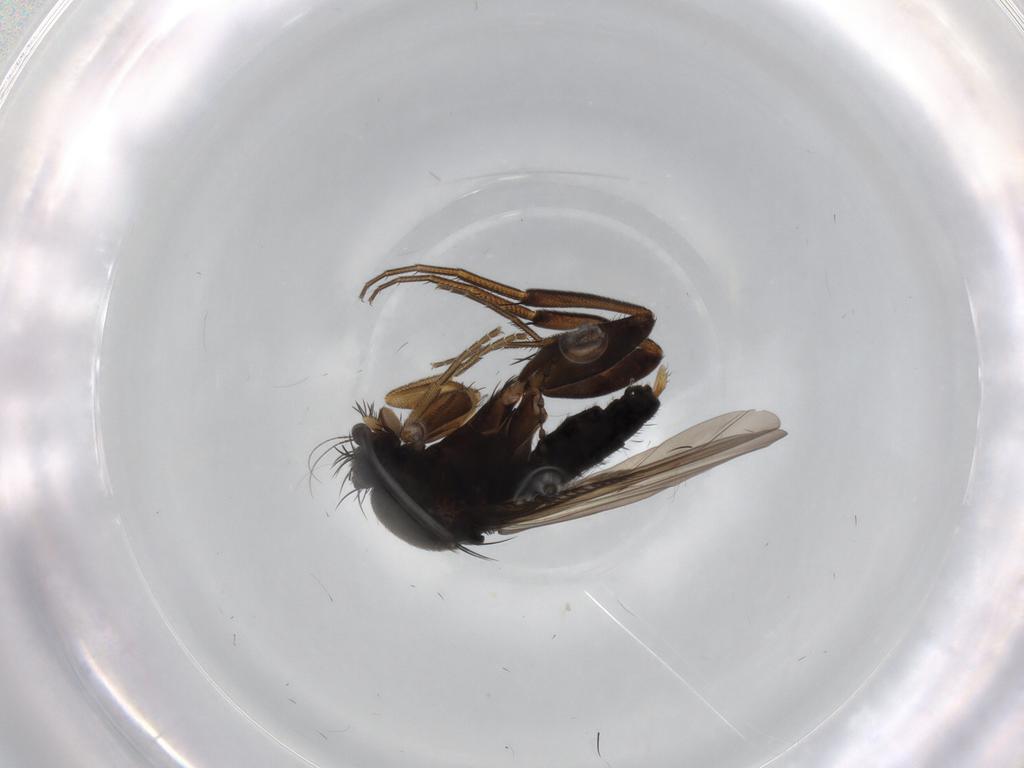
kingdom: Animalia
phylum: Arthropoda
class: Insecta
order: Diptera
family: Phoridae
